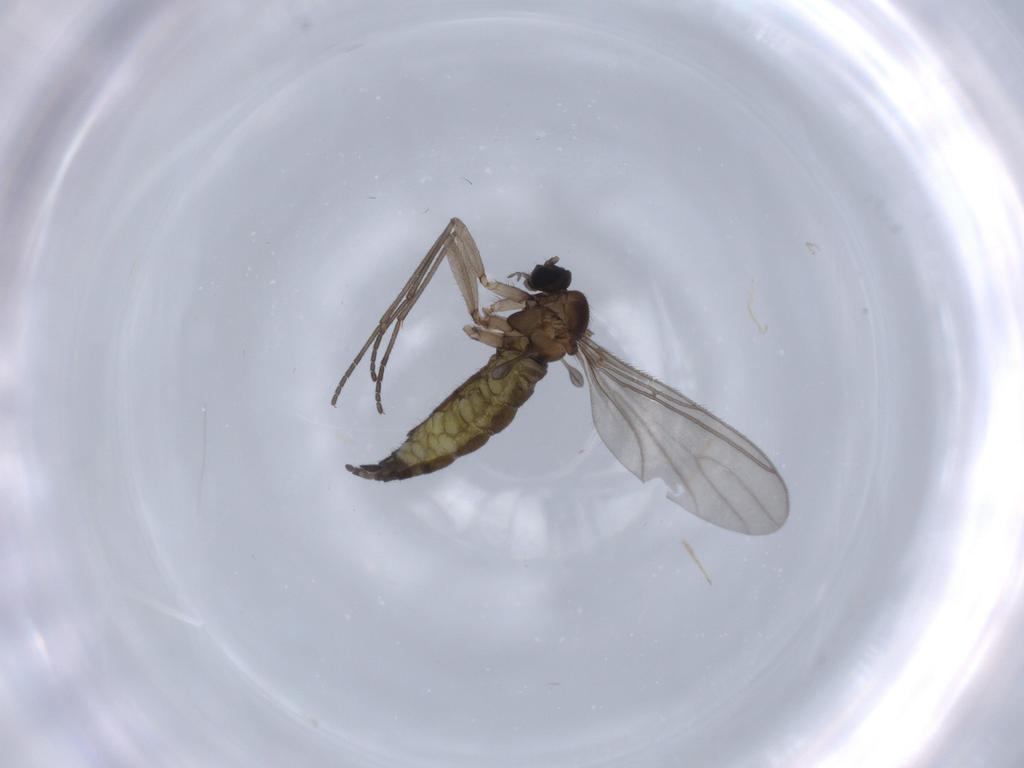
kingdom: Animalia
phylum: Arthropoda
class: Insecta
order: Diptera
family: Sciaridae
